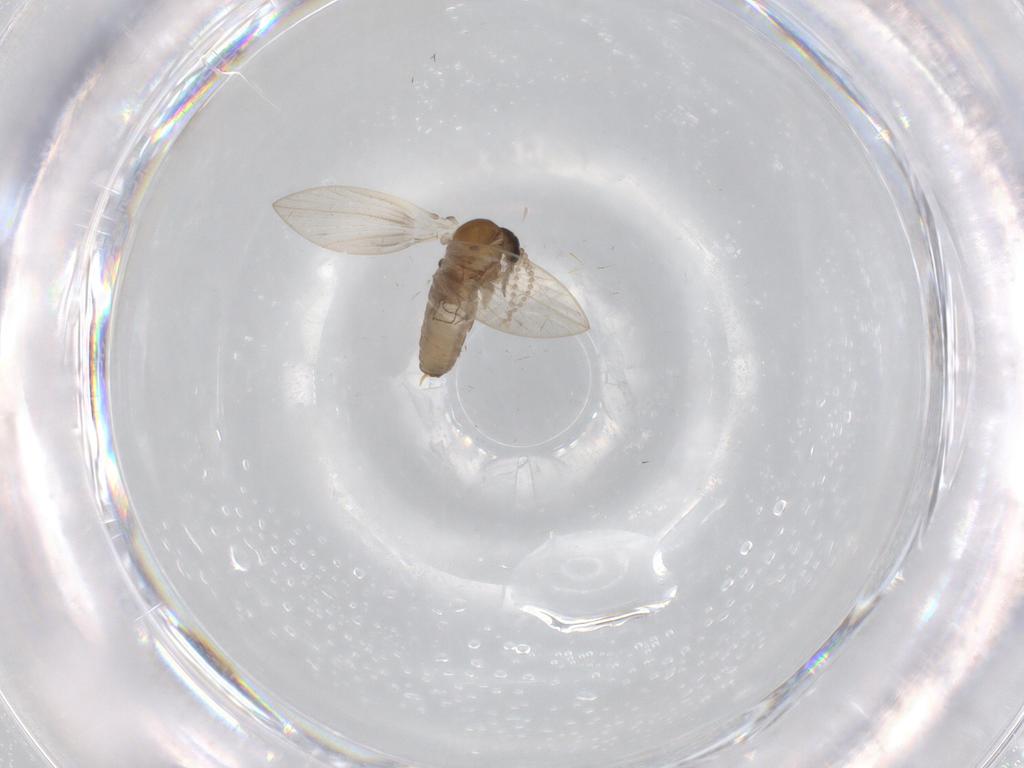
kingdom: Animalia
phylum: Arthropoda
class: Insecta
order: Diptera
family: Psychodidae
